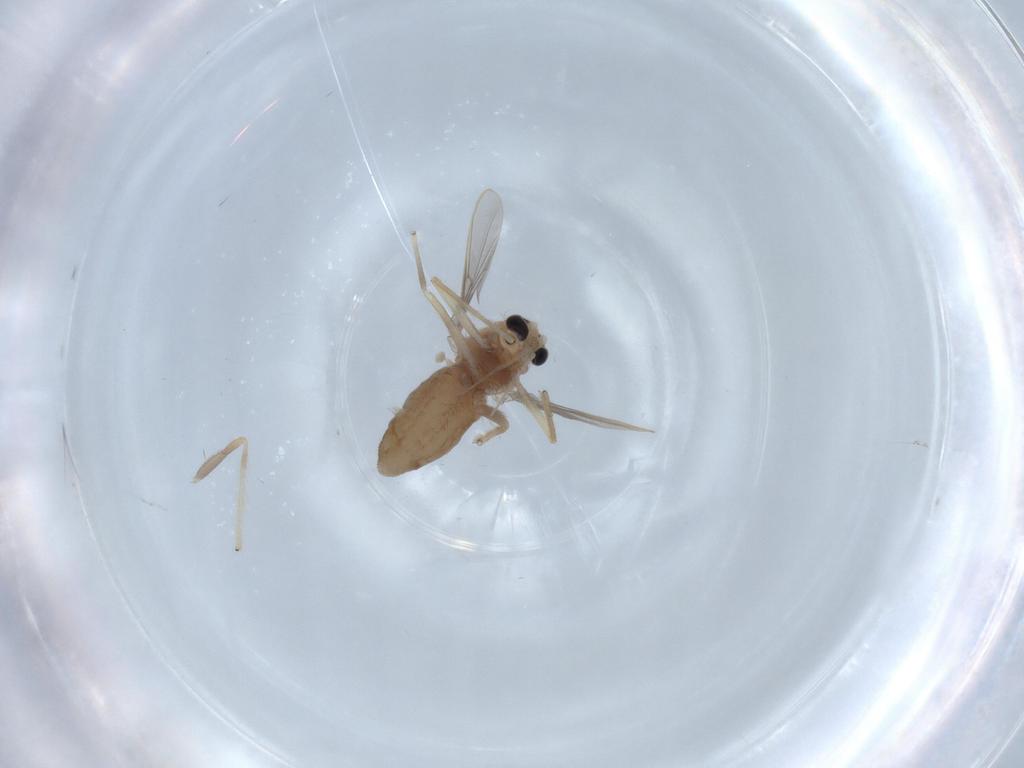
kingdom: Animalia
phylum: Arthropoda
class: Insecta
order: Diptera
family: Chironomidae
